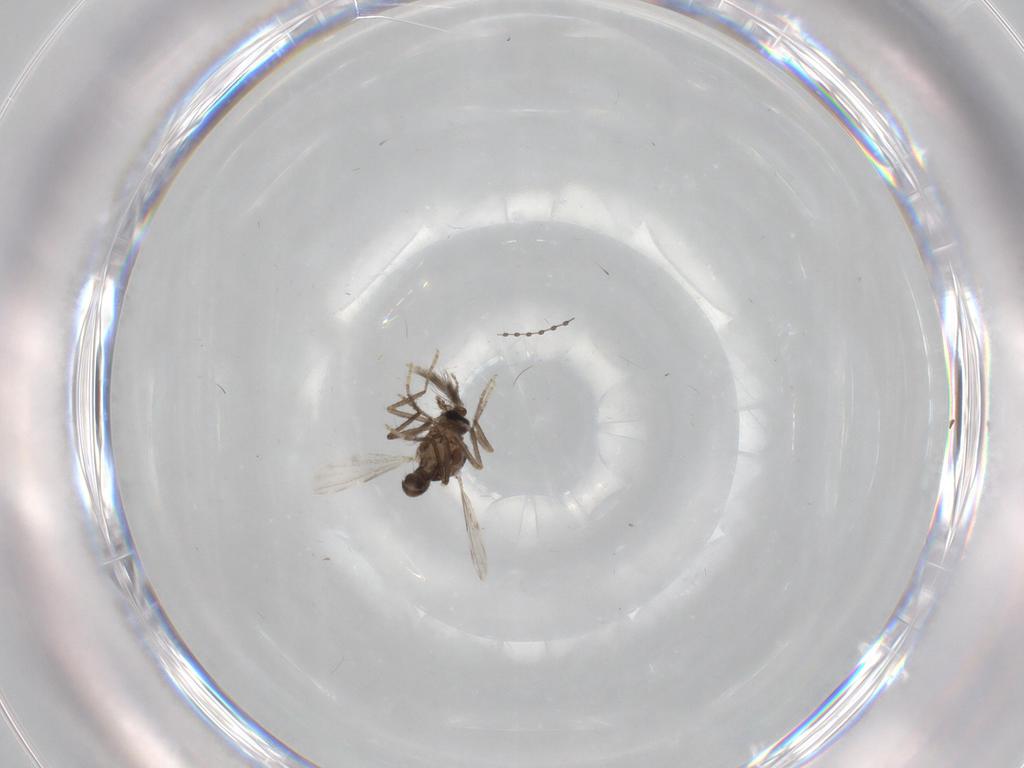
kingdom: Animalia
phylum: Arthropoda
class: Insecta
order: Diptera
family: Ceratopogonidae
